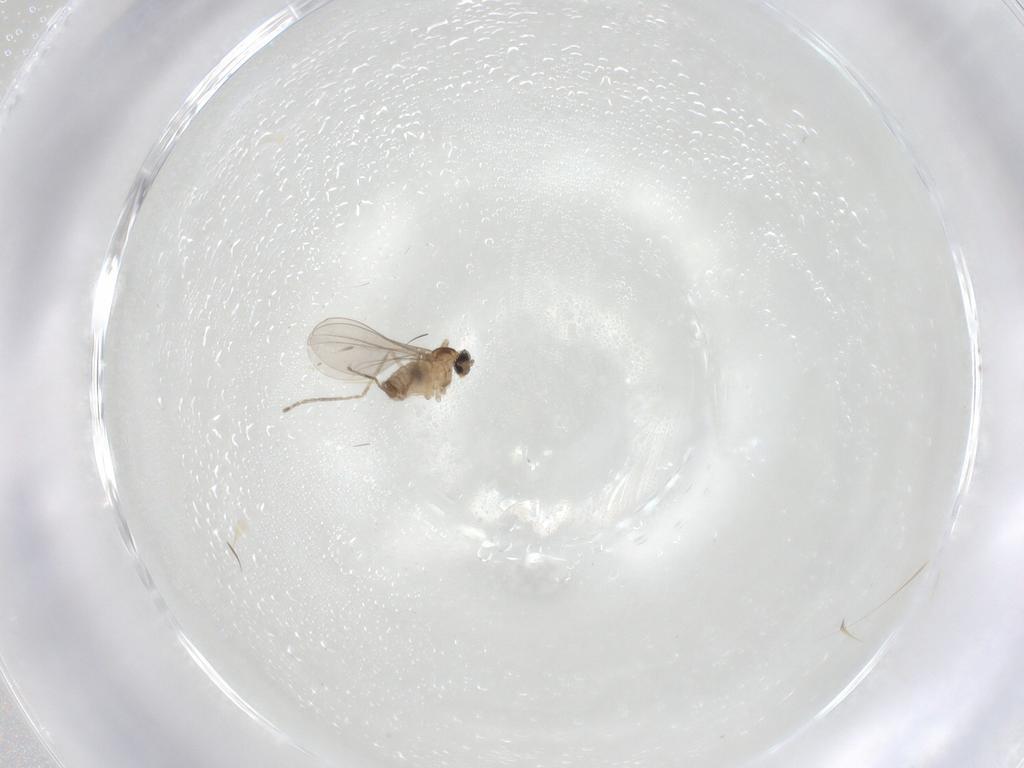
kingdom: Animalia
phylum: Arthropoda
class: Insecta
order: Diptera
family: Cecidomyiidae
